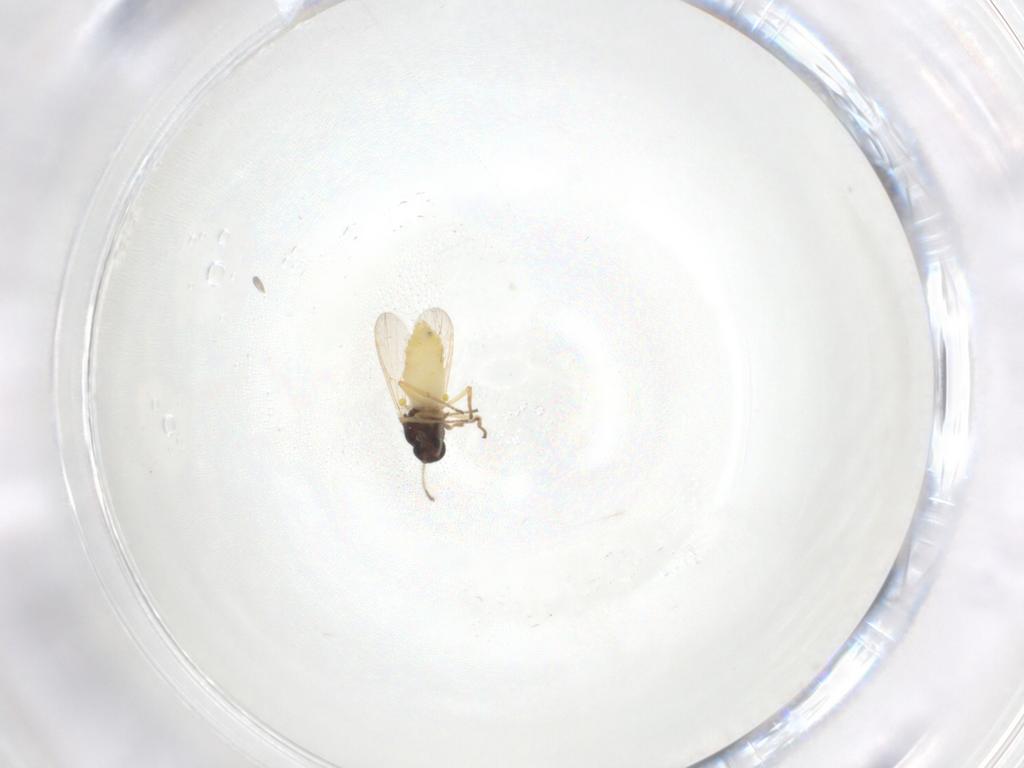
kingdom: Animalia
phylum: Arthropoda
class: Insecta
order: Diptera
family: Ceratopogonidae
